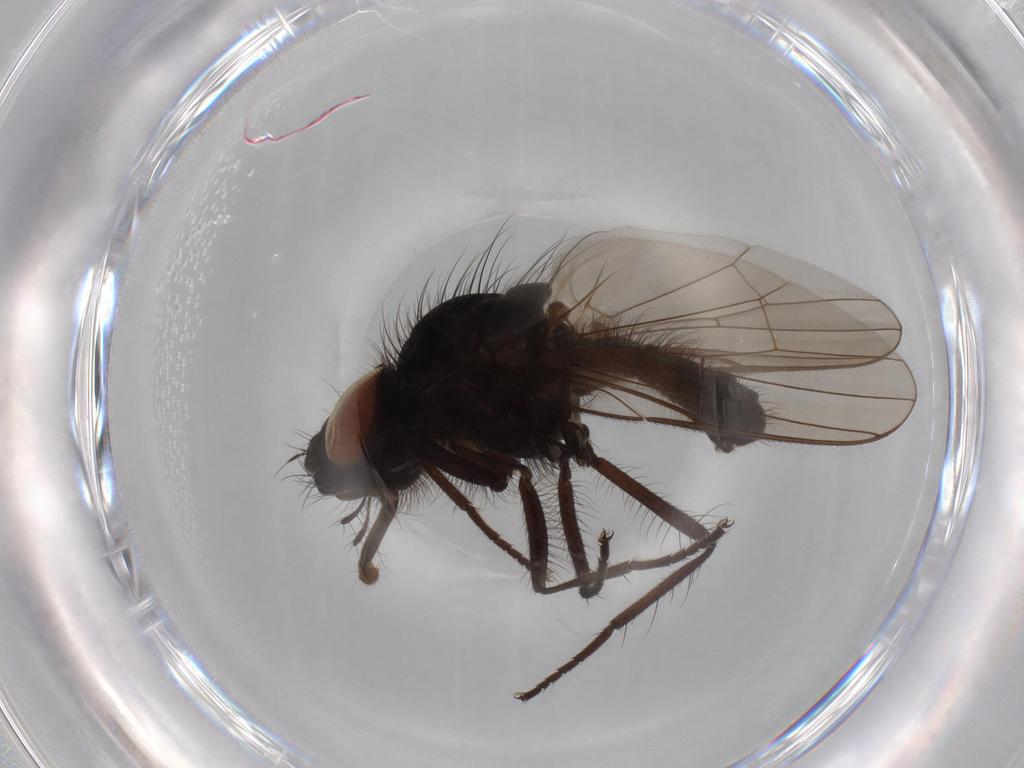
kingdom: Animalia
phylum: Arthropoda
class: Insecta
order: Diptera
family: Anthomyiidae
